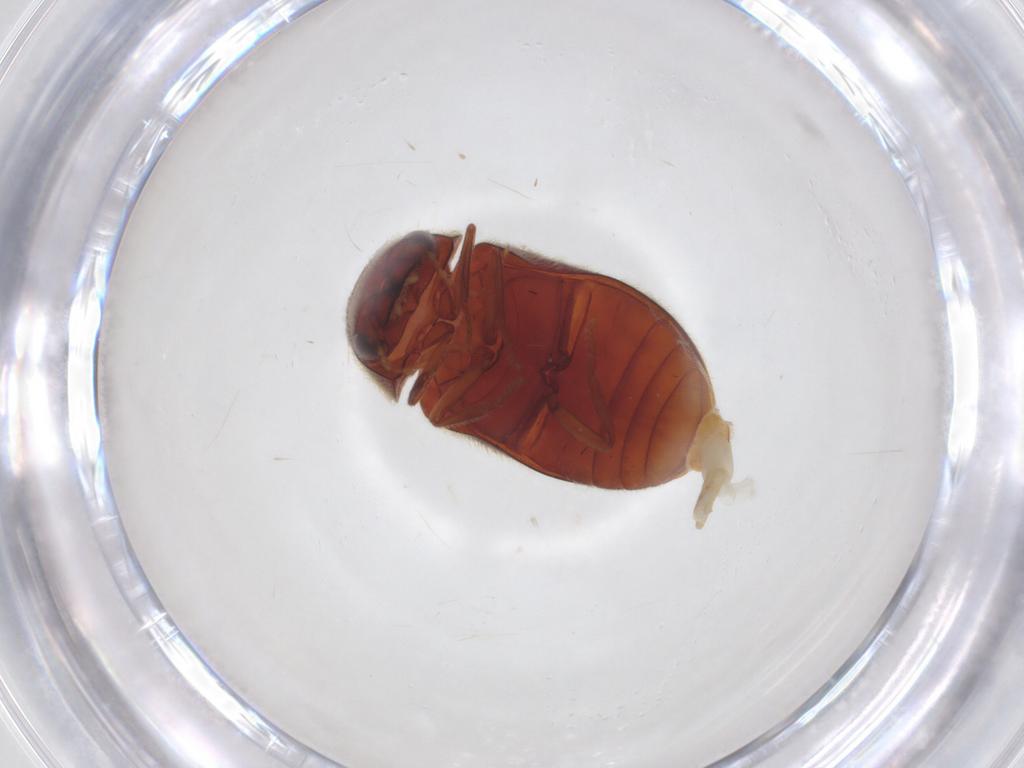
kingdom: Animalia
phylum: Arthropoda
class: Insecta
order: Coleoptera
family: Ptinidae
